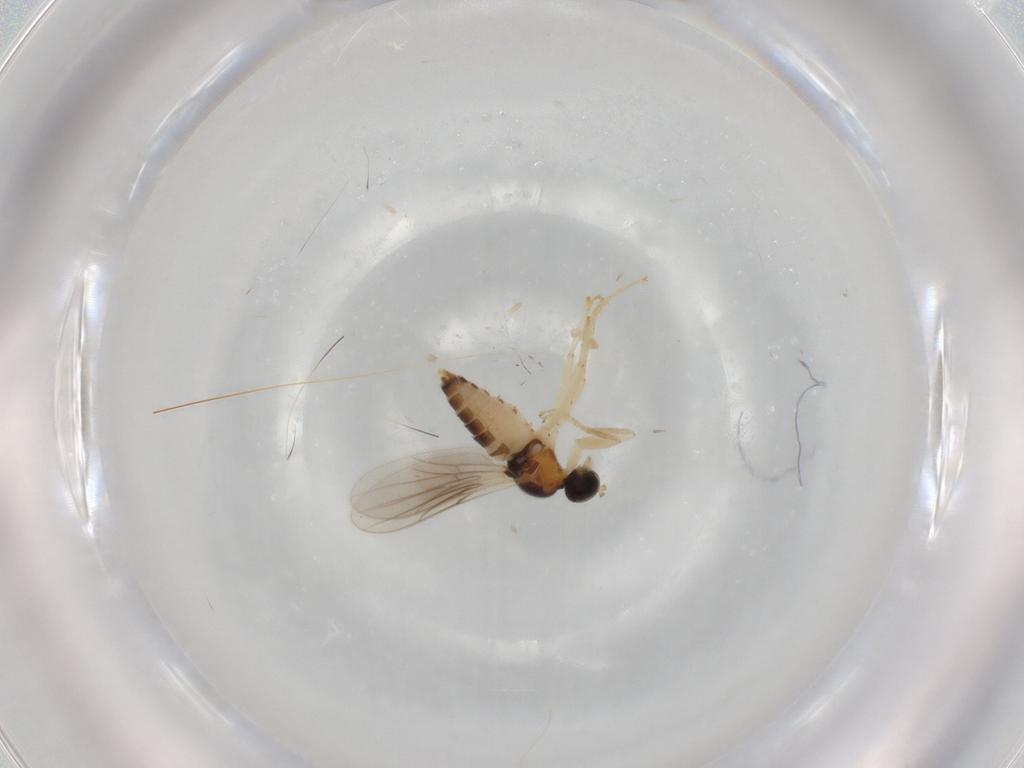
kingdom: Animalia
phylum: Arthropoda
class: Insecta
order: Diptera
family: Hybotidae
